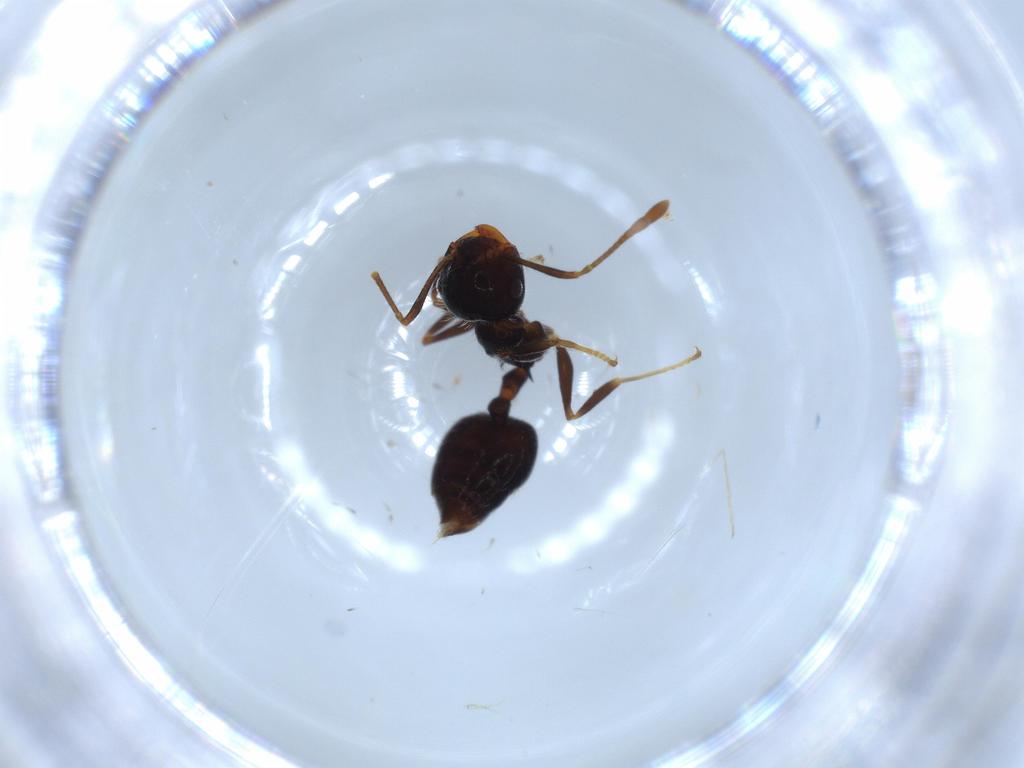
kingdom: Animalia
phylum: Arthropoda
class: Insecta
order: Hymenoptera
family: Formicidae
